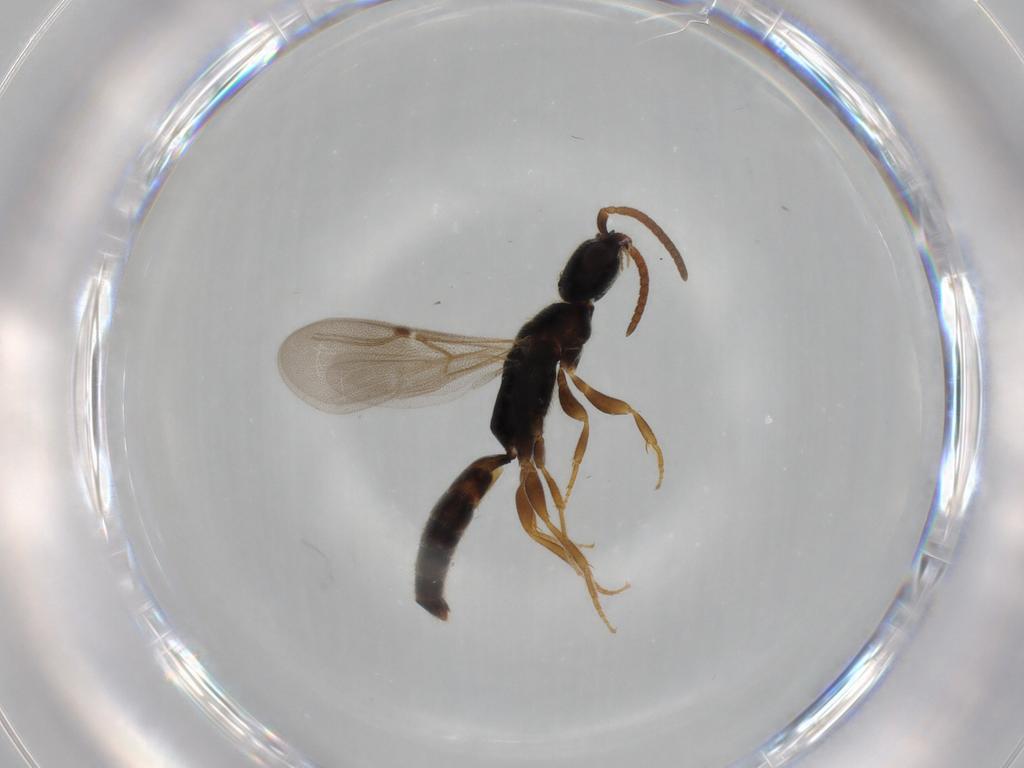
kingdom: Animalia
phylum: Arthropoda
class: Insecta
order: Hymenoptera
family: Bethylidae
